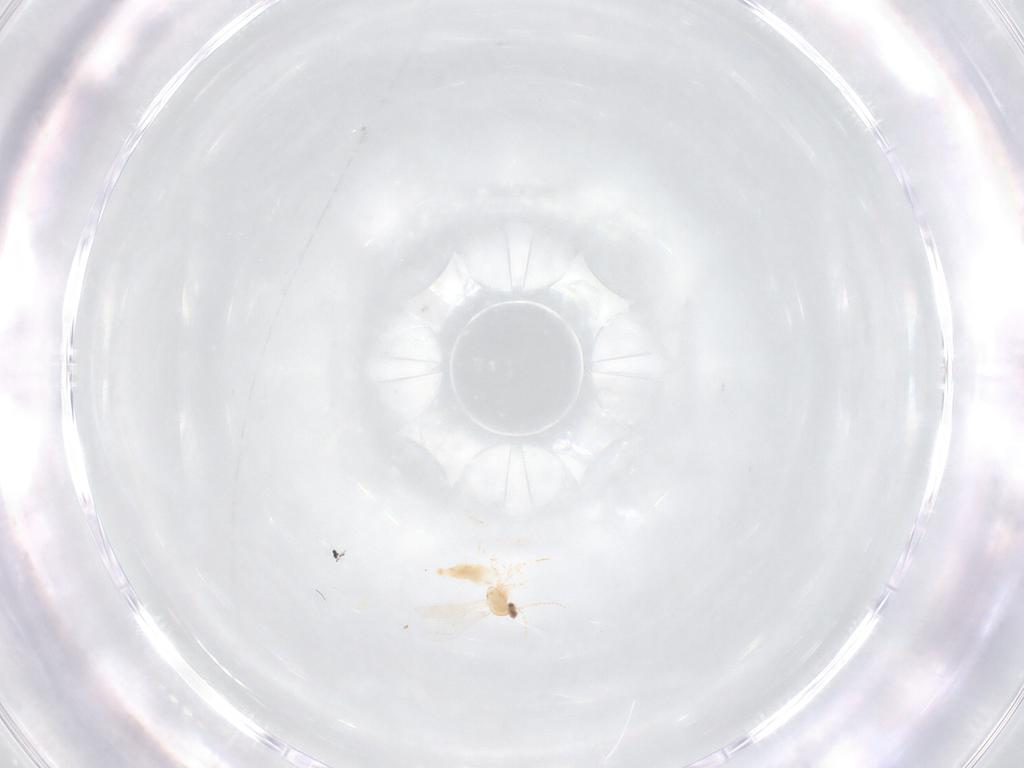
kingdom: Animalia
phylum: Arthropoda
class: Insecta
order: Diptera
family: Cecidomyiidae
